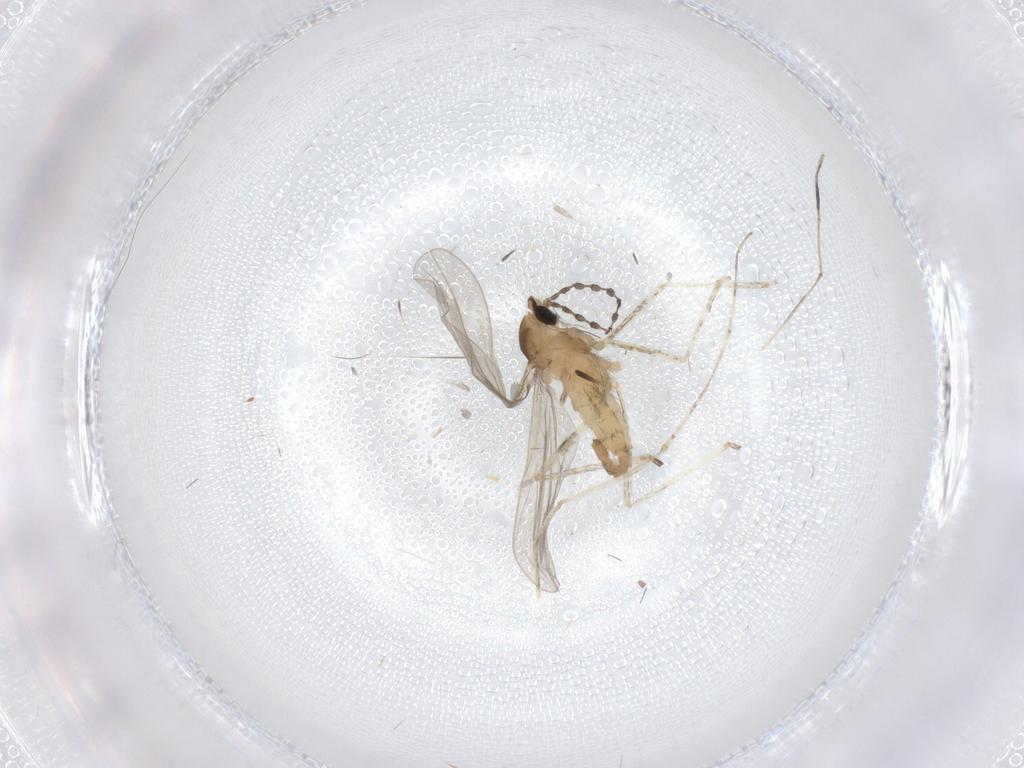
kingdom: Animalia
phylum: Arthropoda
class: Insecta
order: Diptera
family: Cecidomyiidae
